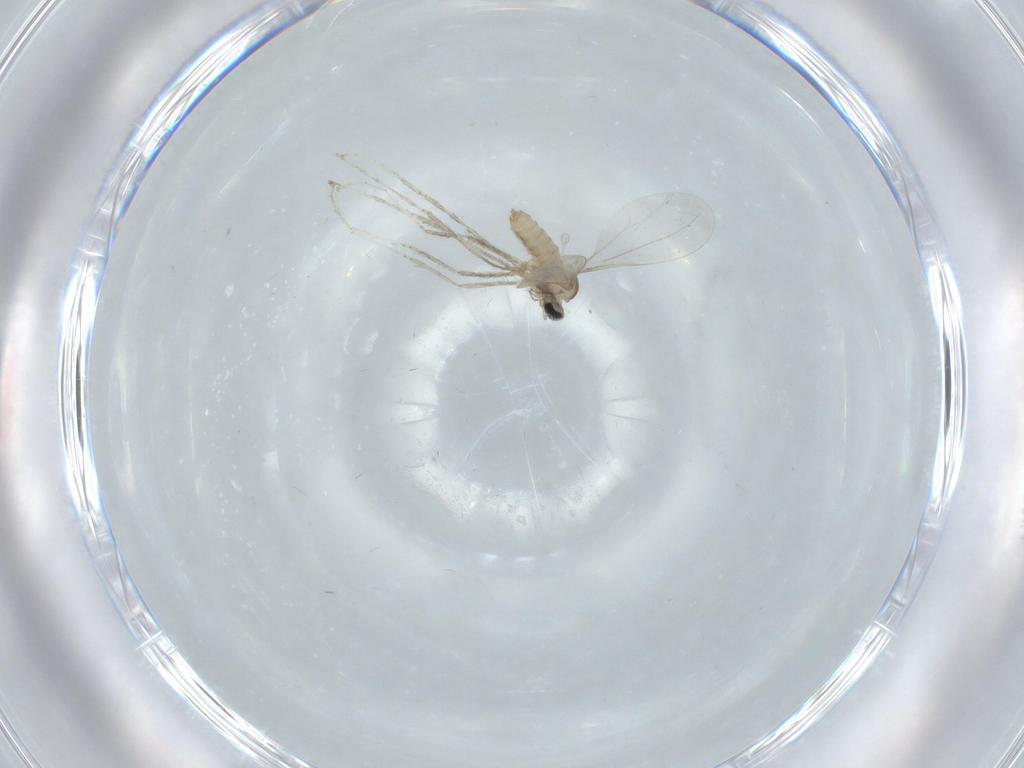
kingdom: Animalia
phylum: Arthropoda
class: Insecta
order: Diptera
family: Cecidomyiidae
